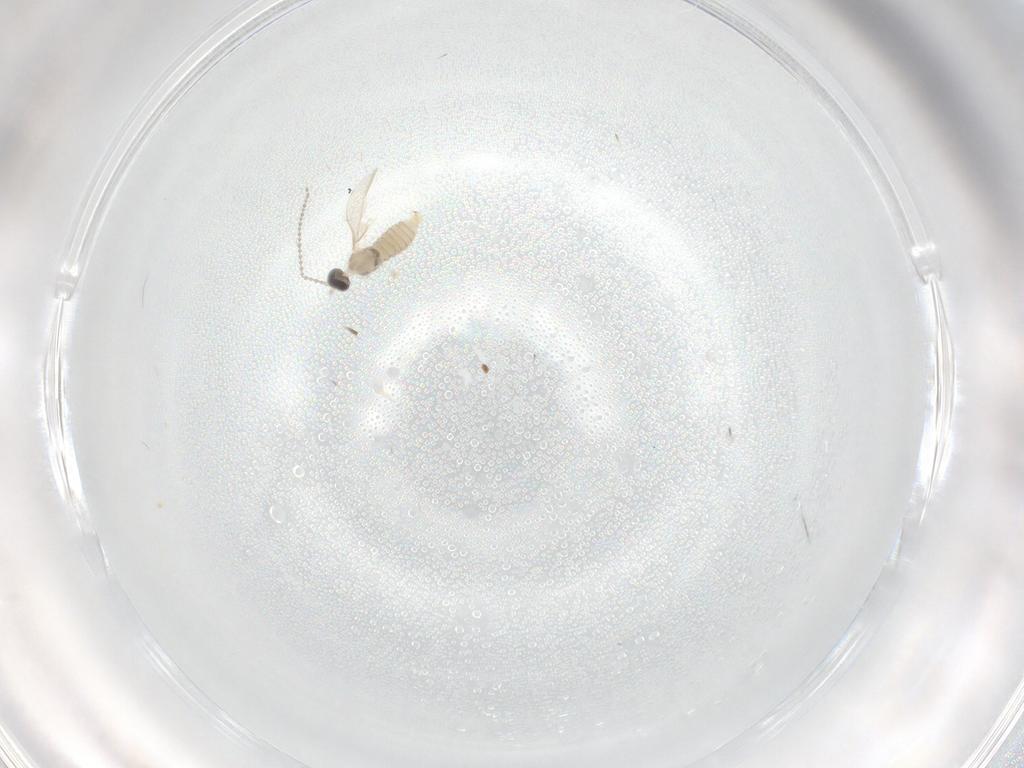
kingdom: Animalia
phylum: Arthropoda
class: Insecta
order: Diptera
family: Cecidomyiidae
